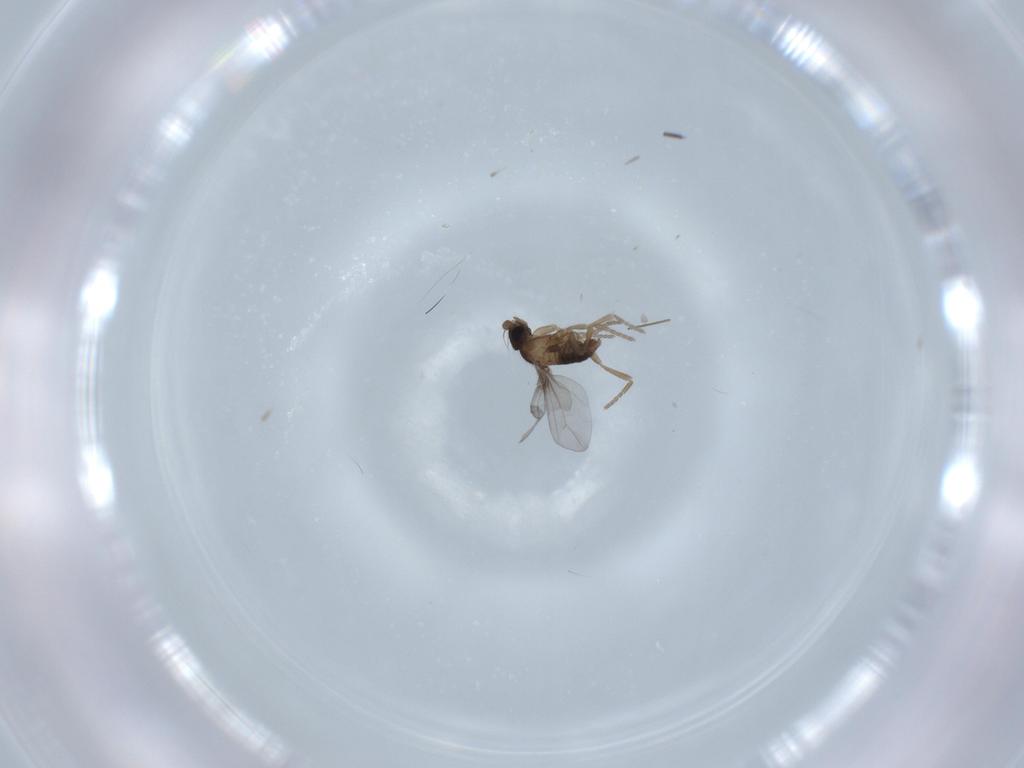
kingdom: Animalia
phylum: Arthropoda
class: Insecta
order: Diptera
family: Phoridae
